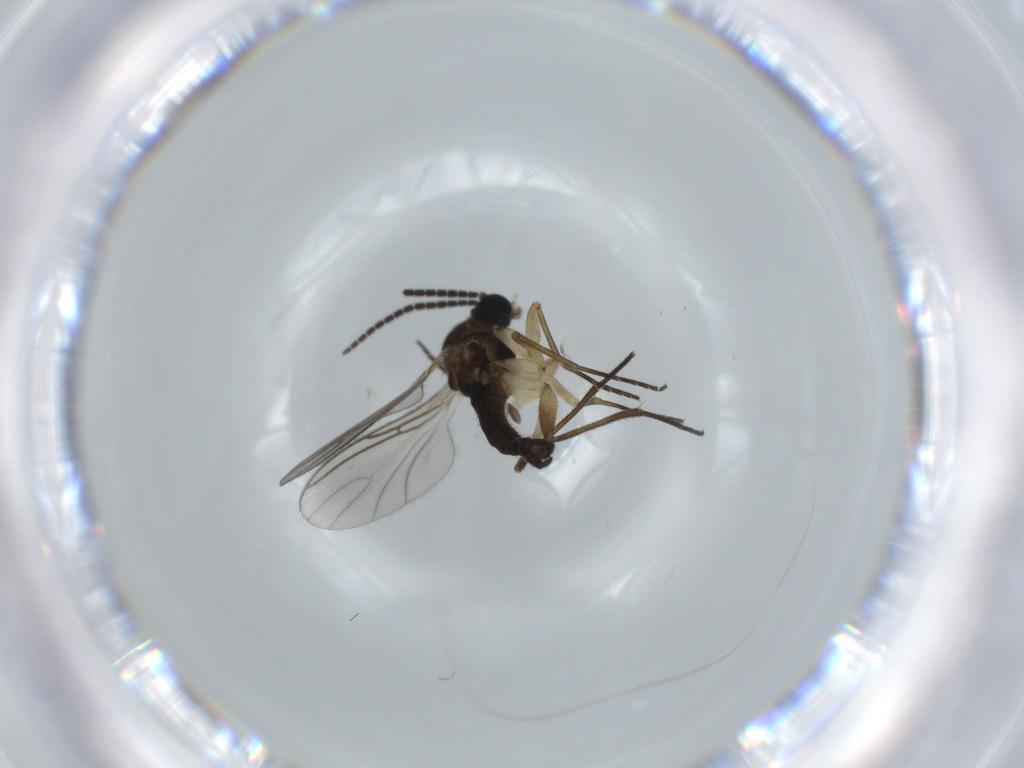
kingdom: Animalia
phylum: Arthropoda
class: Insecta
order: Diptera
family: Sciaridae
